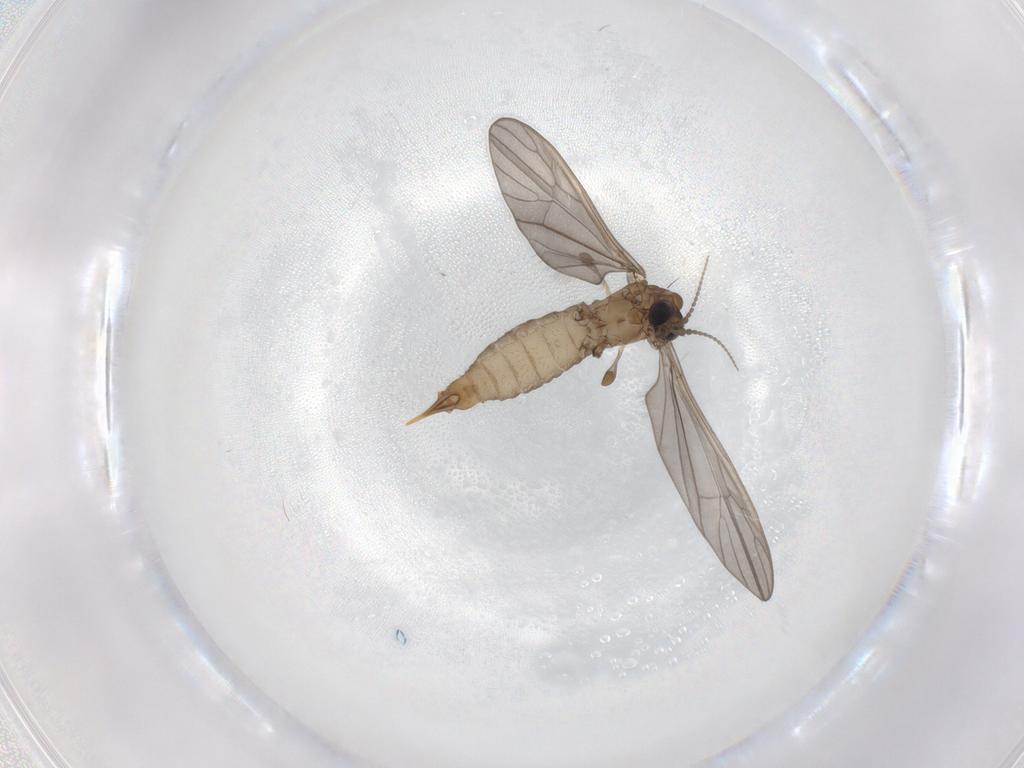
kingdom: Animalia
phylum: Arthropoda
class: Insecta
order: Diptera
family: Limoniidae
